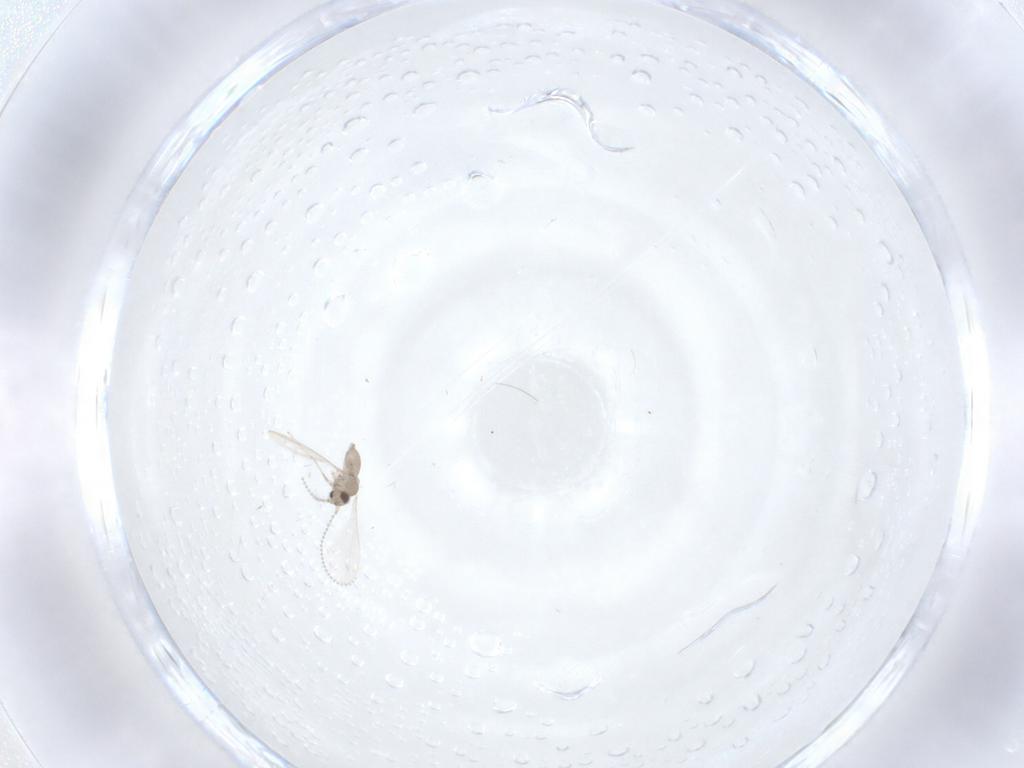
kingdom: Animalia
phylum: Arthropoda
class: Insecta
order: Diptera
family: Cecidomyiidae
